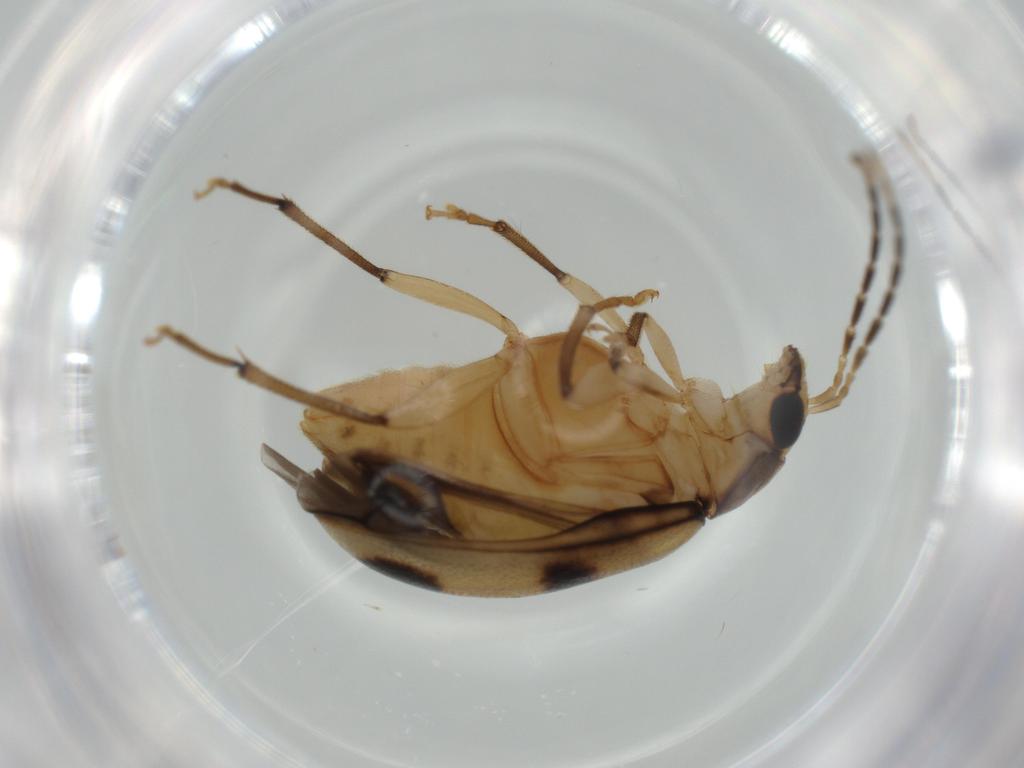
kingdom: Animalia
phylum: Arthropoda
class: Insecta
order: Coleoptera
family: Chrysomelidae
